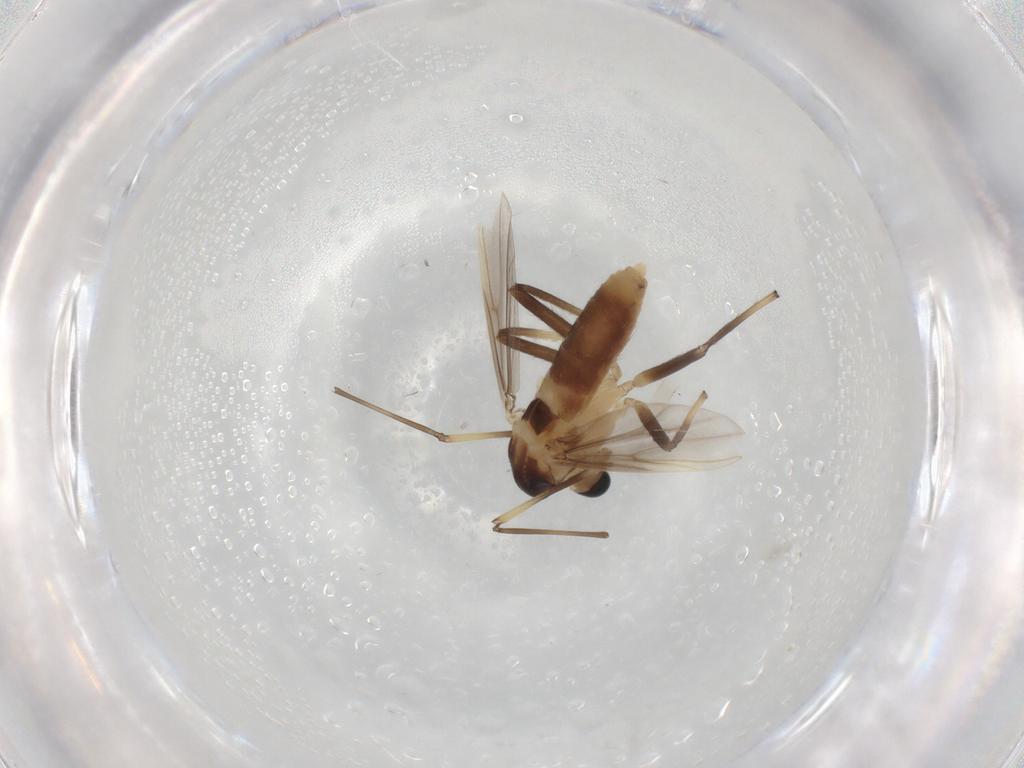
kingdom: Animalia
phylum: Arthropoda
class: Insecta
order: Diptera
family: Chironomidae
